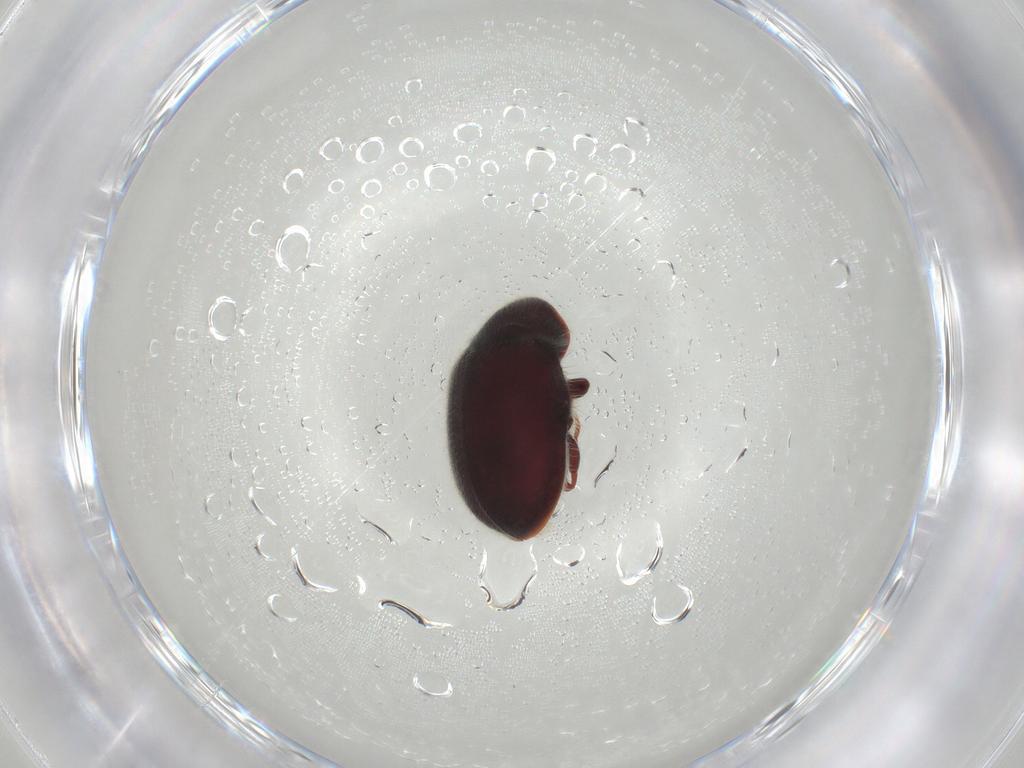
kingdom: Animalia
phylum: Arthropoda
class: Insecta
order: Coleoptera
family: Ptinidae
